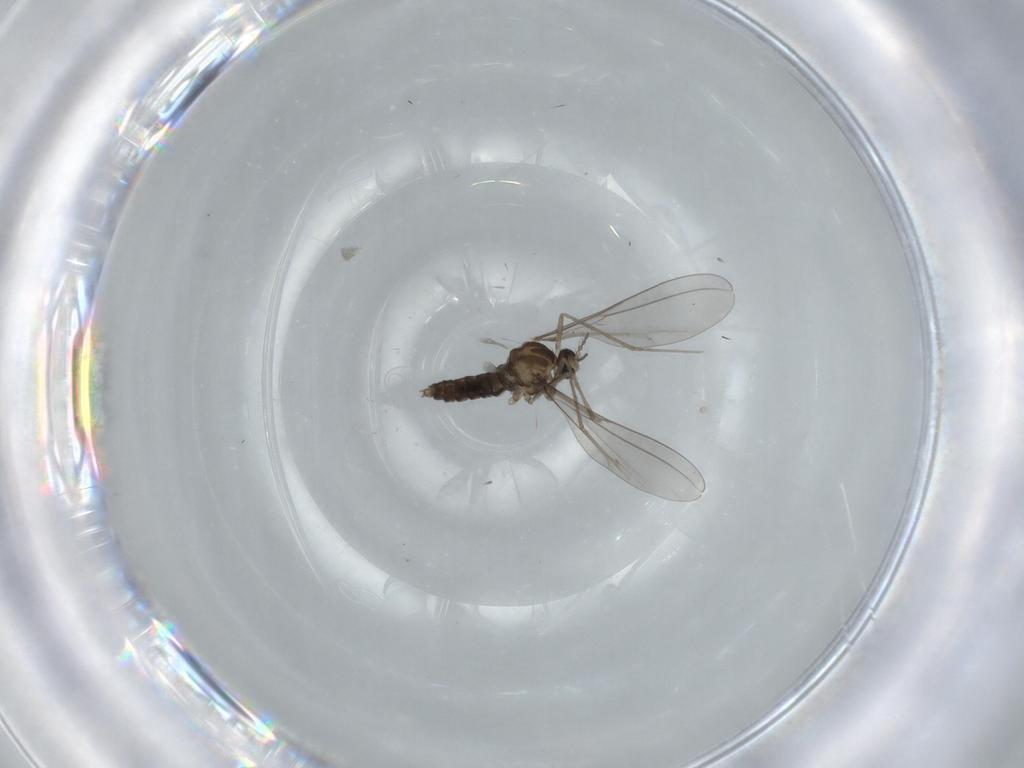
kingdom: Animalia
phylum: Arthropoda
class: Insecta
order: Diptera
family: Cecidomyiidae
